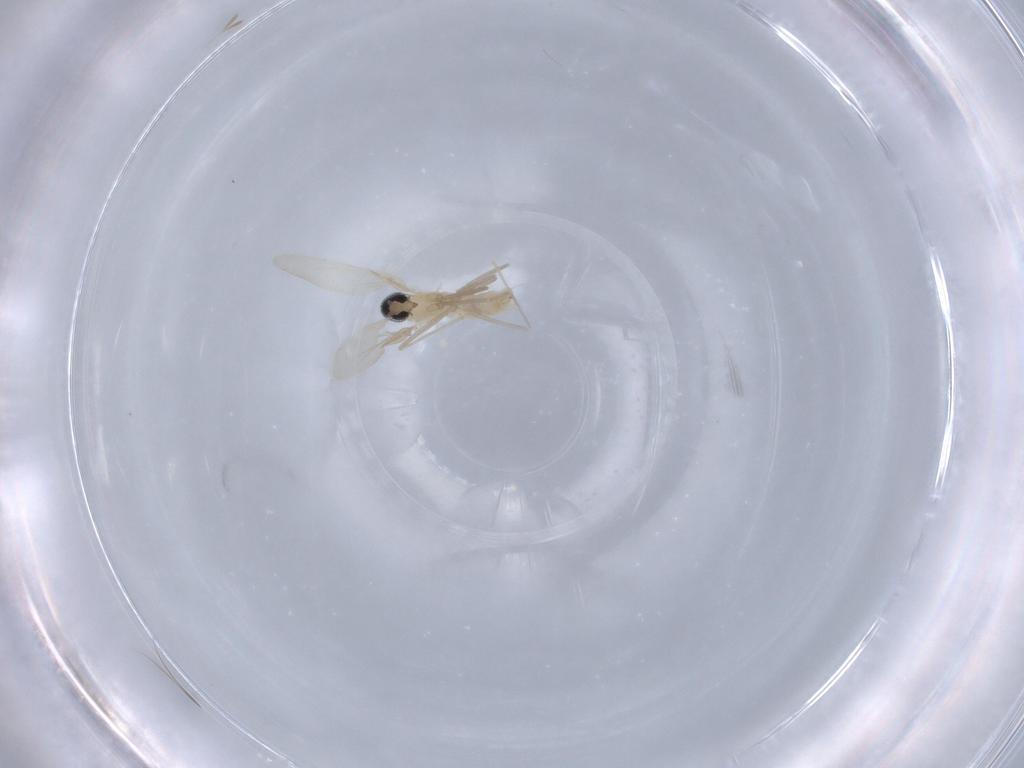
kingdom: Animalia
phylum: Arthropoda
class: Insecta
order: Diptera
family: Cecidomyiidae
